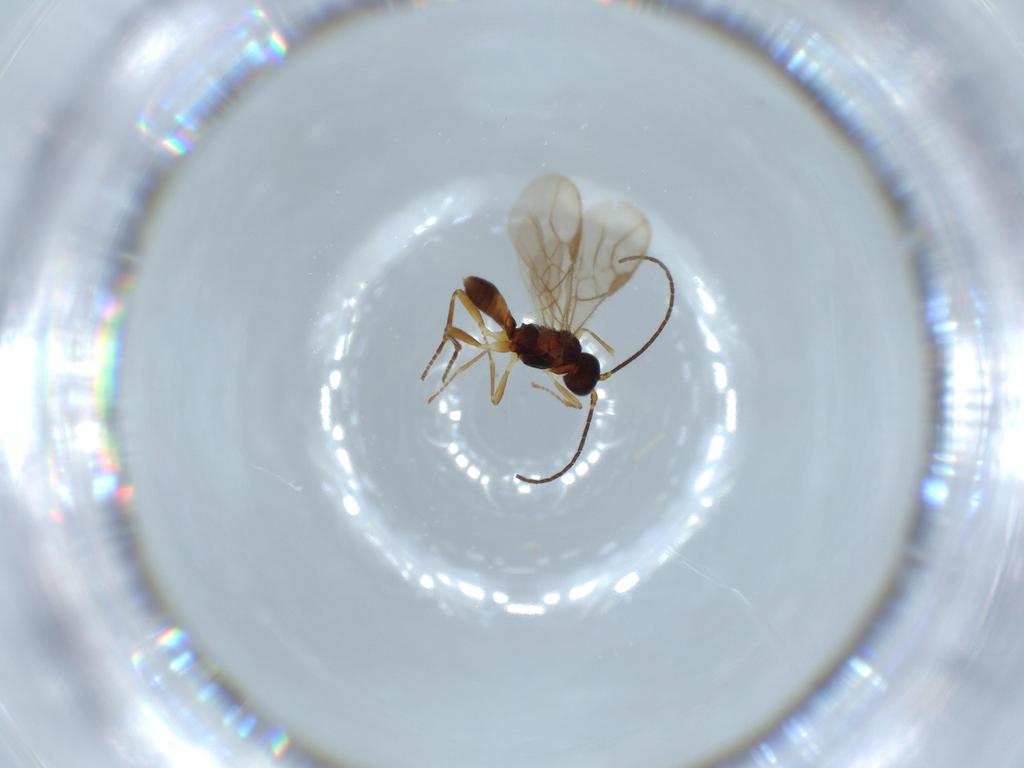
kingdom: Animalia
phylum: Arthropoda
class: Insecta
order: Hymenoptera
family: Braconidae
